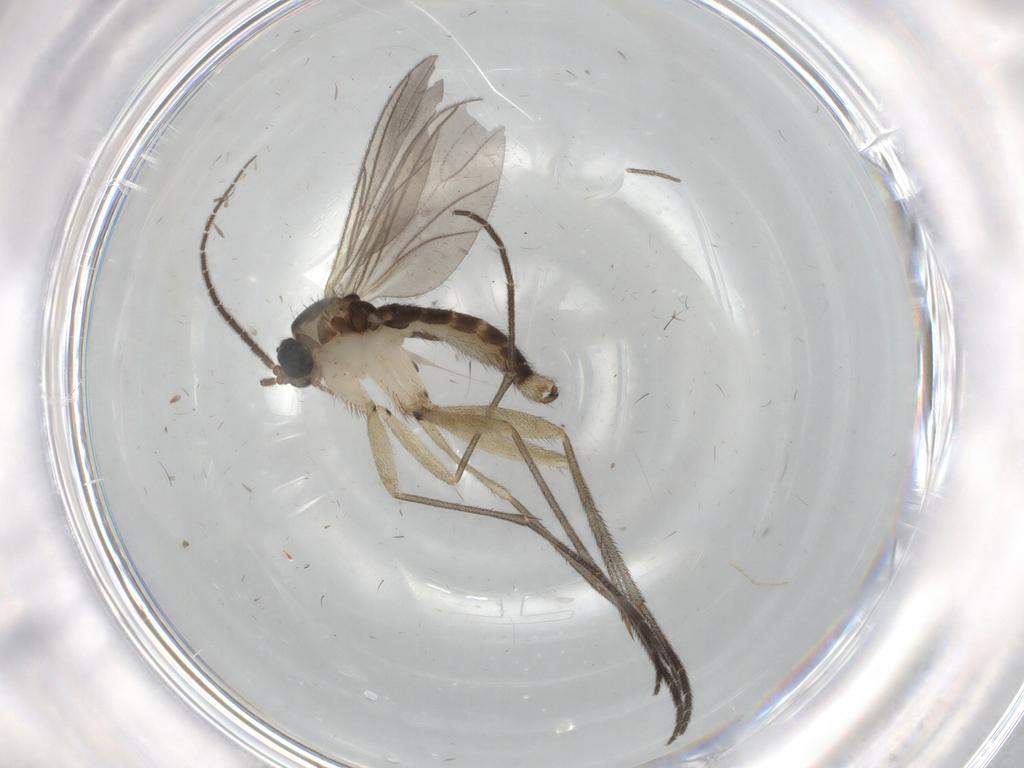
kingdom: Animalia
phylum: Arthropoda
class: Insecta
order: Diptera
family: Sciaridae
